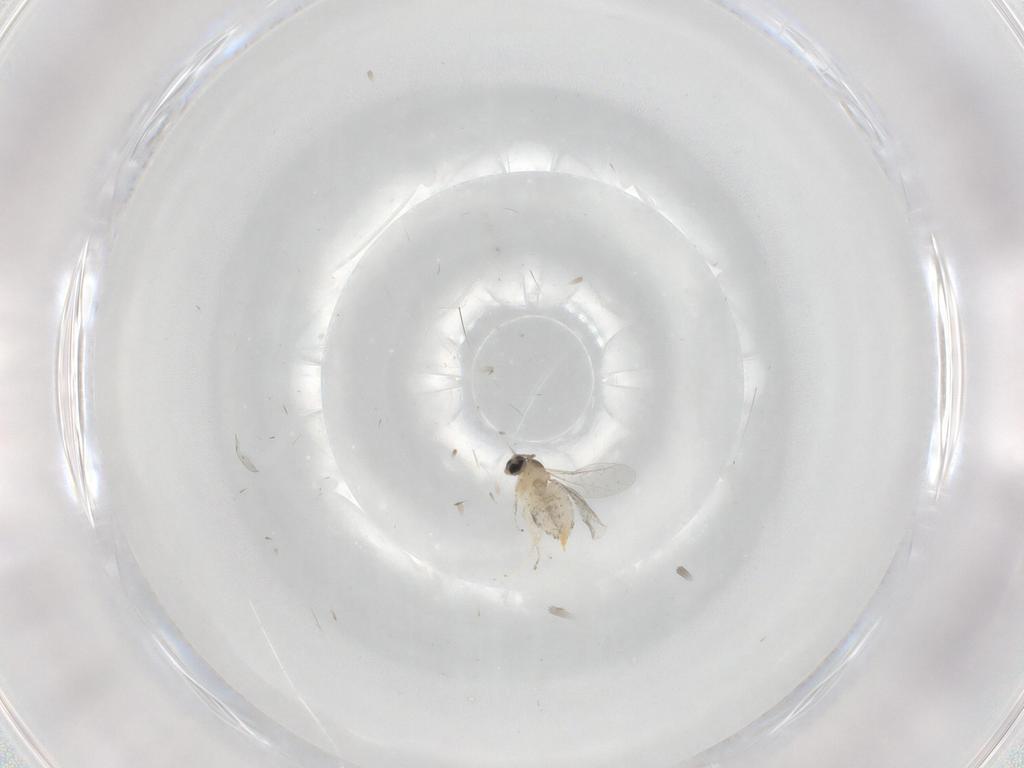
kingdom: Animalia
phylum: Arthropoda
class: Insecta
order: Diptera
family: Cecidomyiidae
